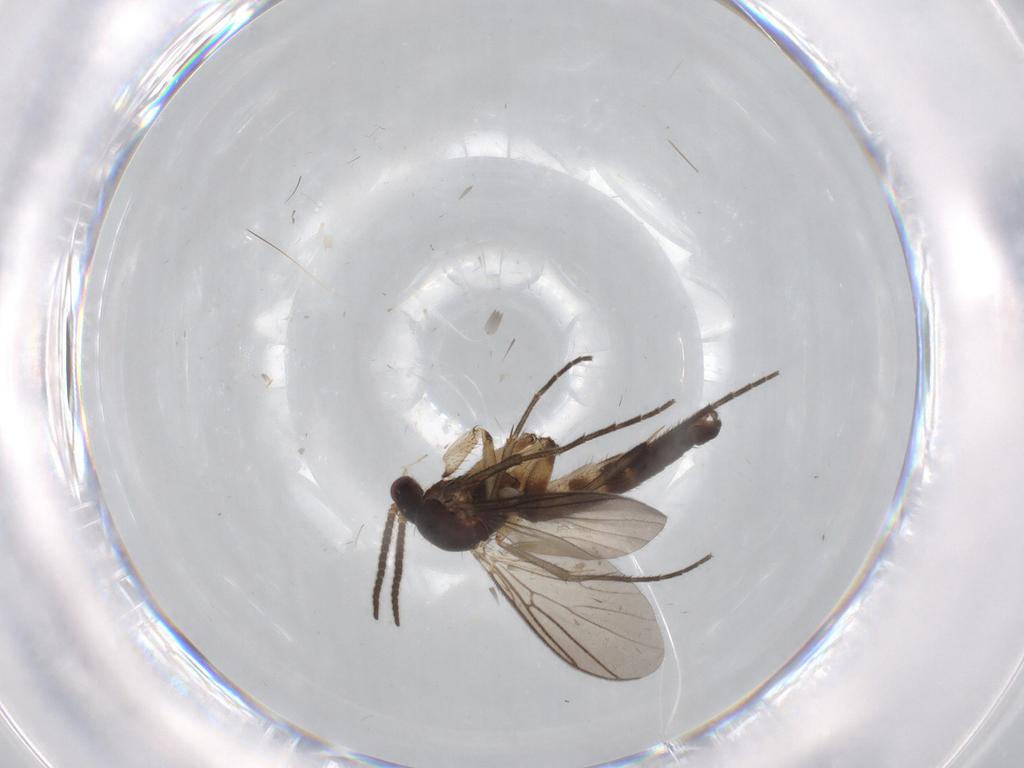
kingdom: Animalia
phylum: Arthropoda
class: Insecta
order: Diptera
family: Mycetophilidae
